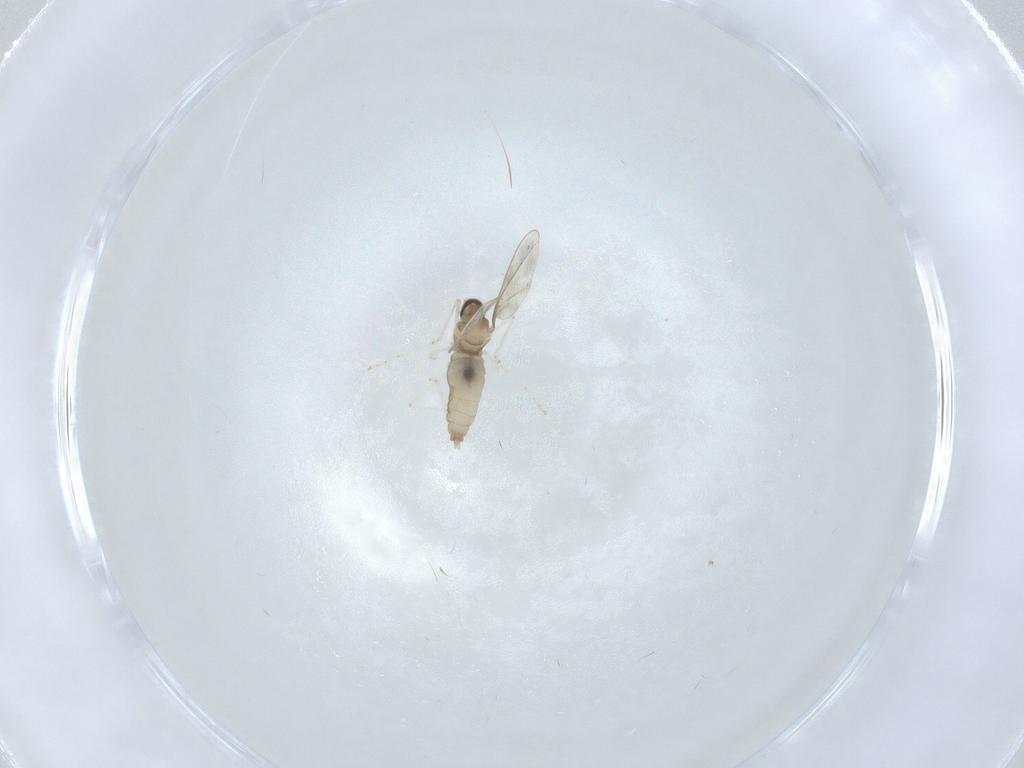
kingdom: Animalia
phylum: Arthropoda
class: Insecta
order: Diptera
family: Cecidomyiidae
